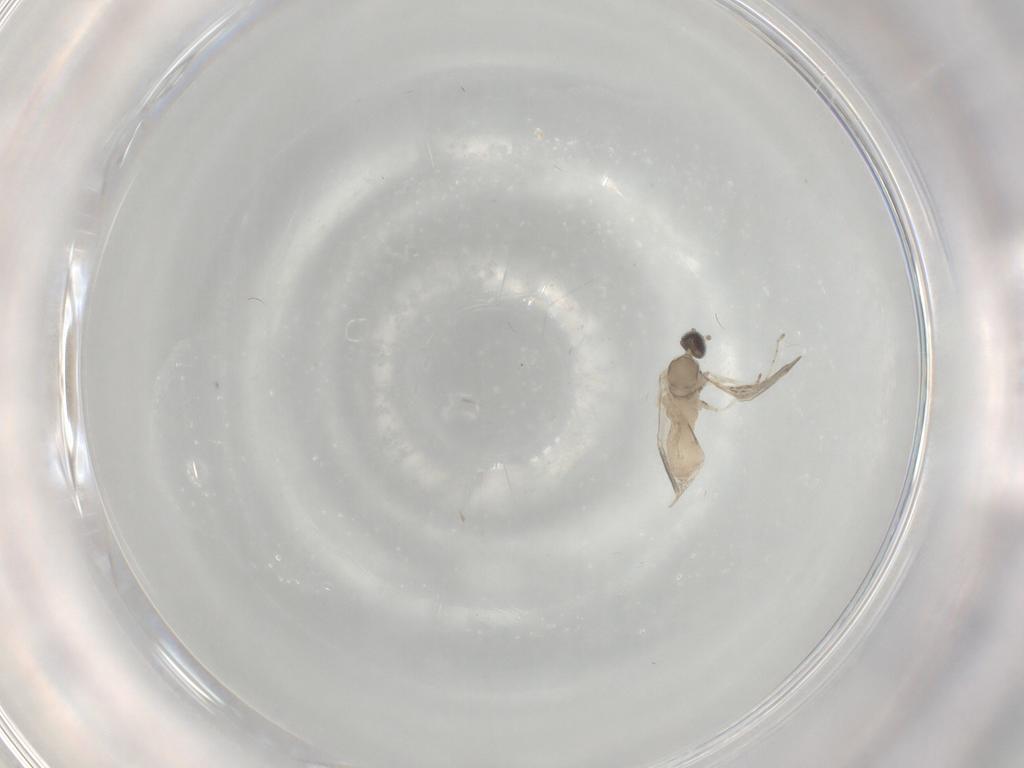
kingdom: Animalia
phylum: Arthropoda
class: Insecta
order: Diptera
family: Cecidomyiidae
